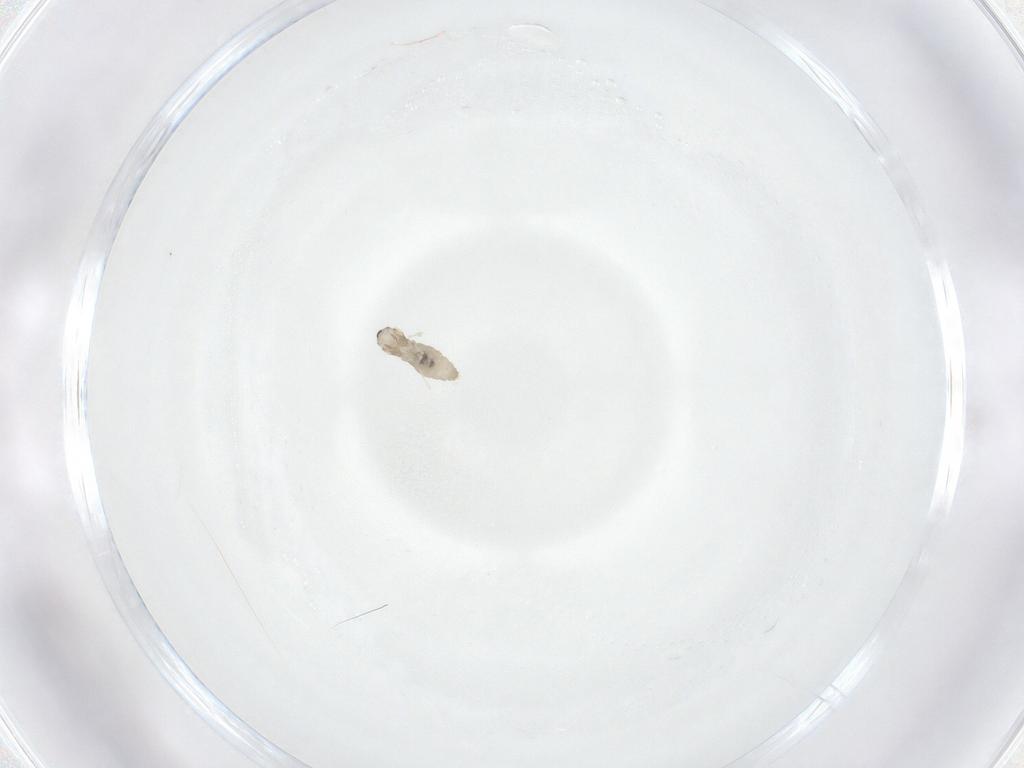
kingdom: Animalia
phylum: Arthropoda
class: Insecta
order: Diptera
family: Cecidomyiidae
